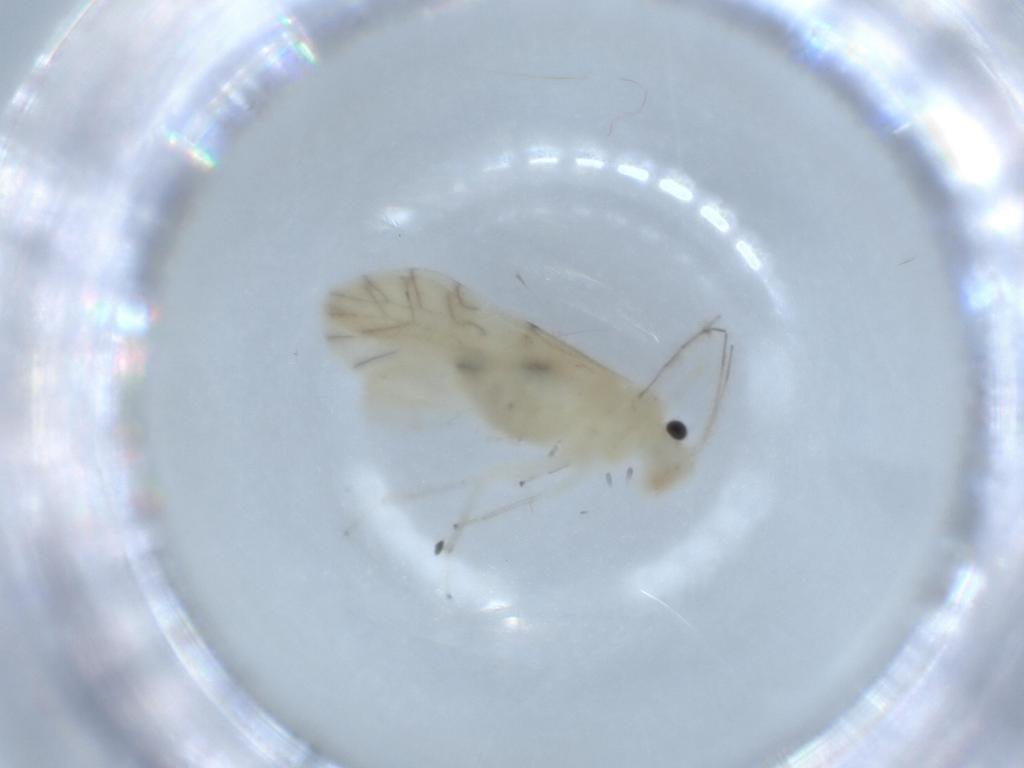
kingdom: Animalia
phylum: Arthropoda
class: Insecta
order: Psocodea
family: Caeciliusidae
